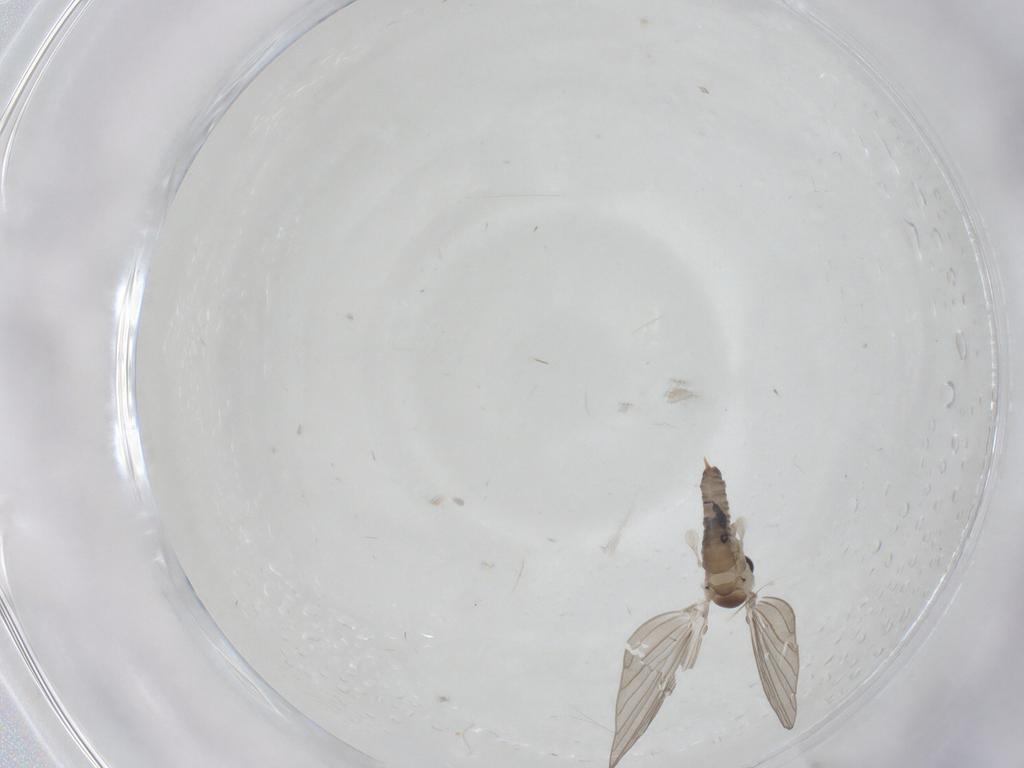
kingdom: Animalia
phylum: Arthropoda
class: Insecta
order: Diptera
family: Psychodidae
